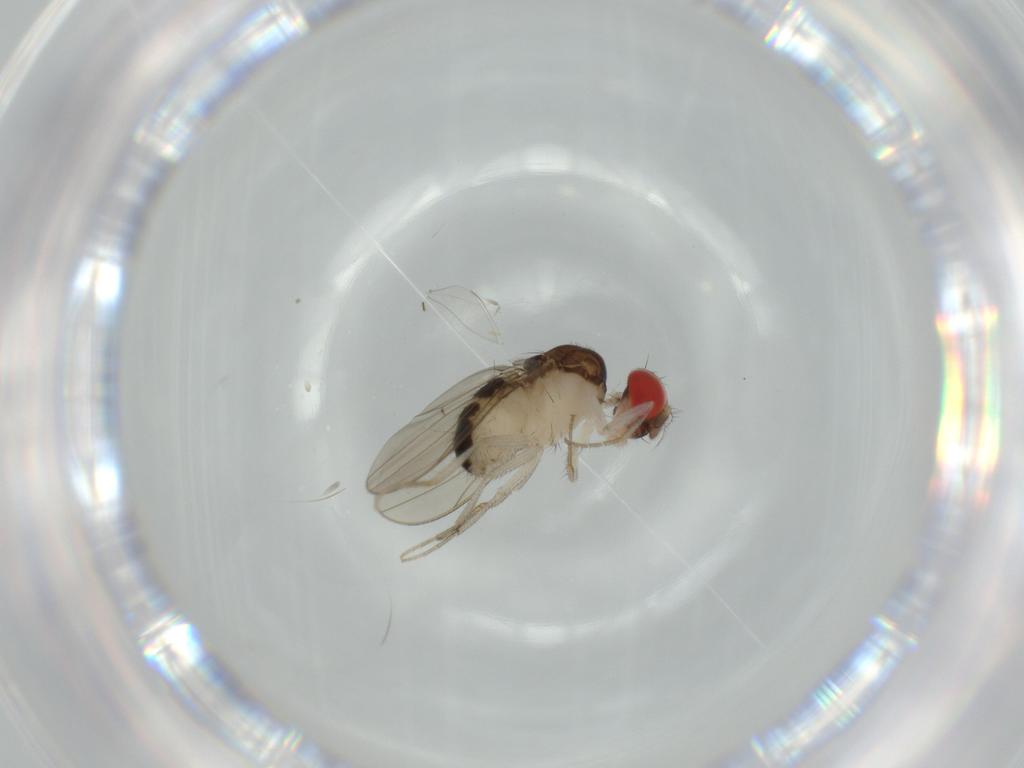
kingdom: Animalia
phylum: Arthropoda
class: Insecta
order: Diptera
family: Drosophilidae
